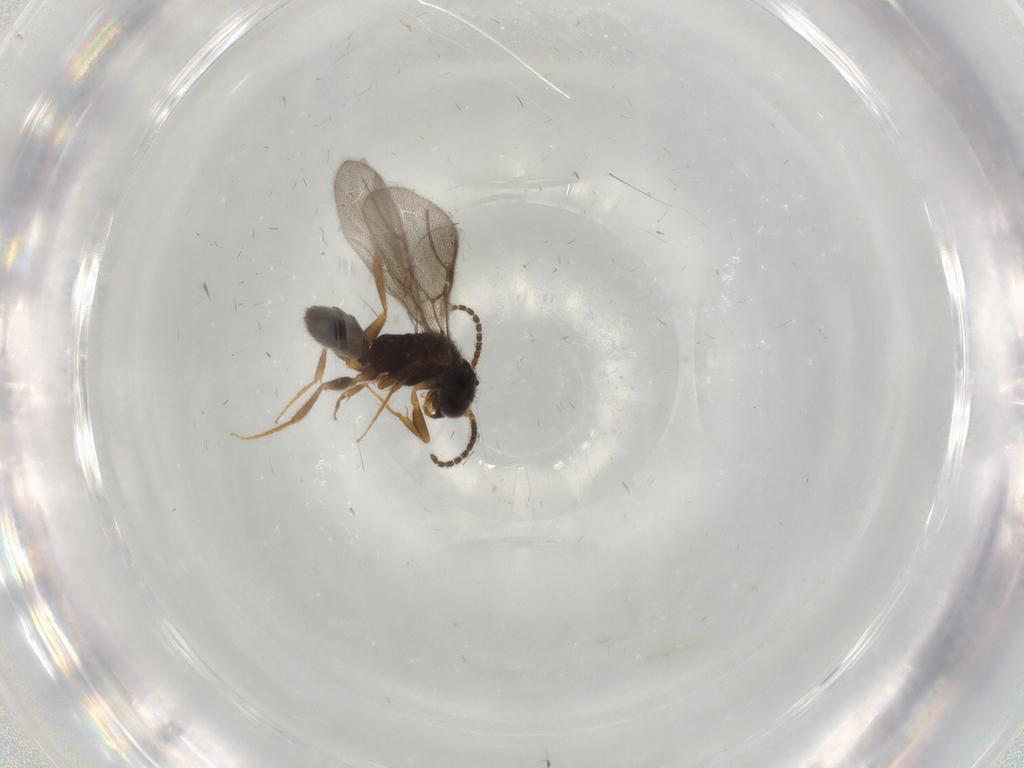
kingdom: Animalia
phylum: Arthropoda
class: Insecta
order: Hymenoptera
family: Bethylidae
